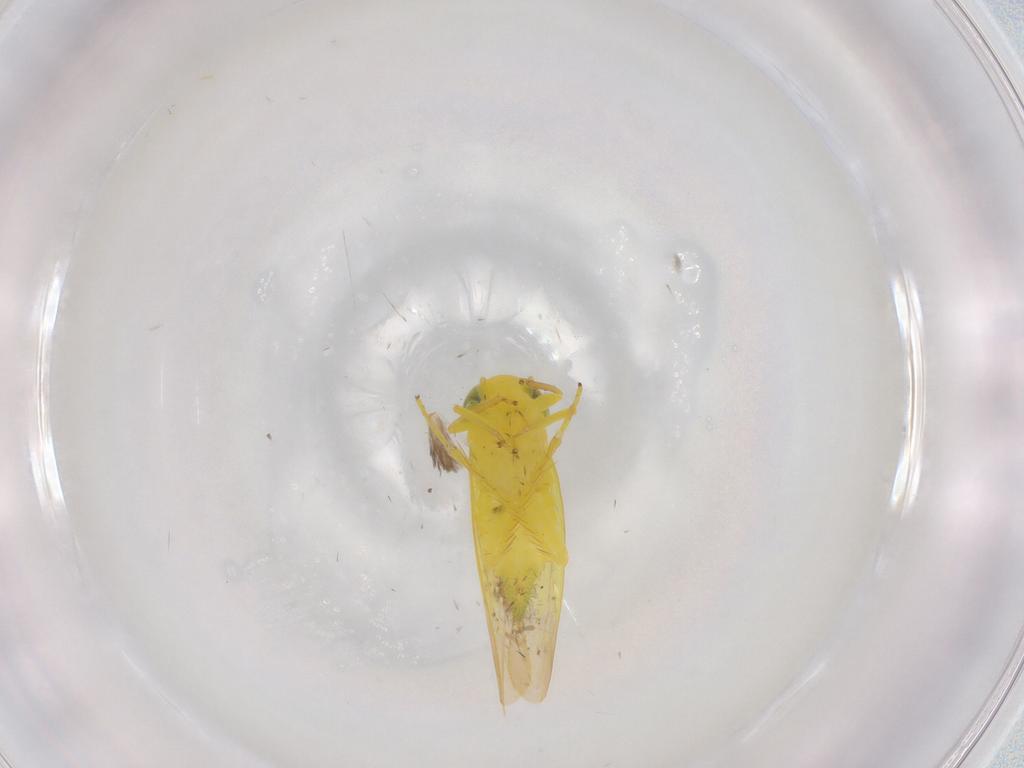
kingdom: Animalia
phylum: Arthropoda
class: Insecta
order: Hemiptera
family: Cicadellidae
